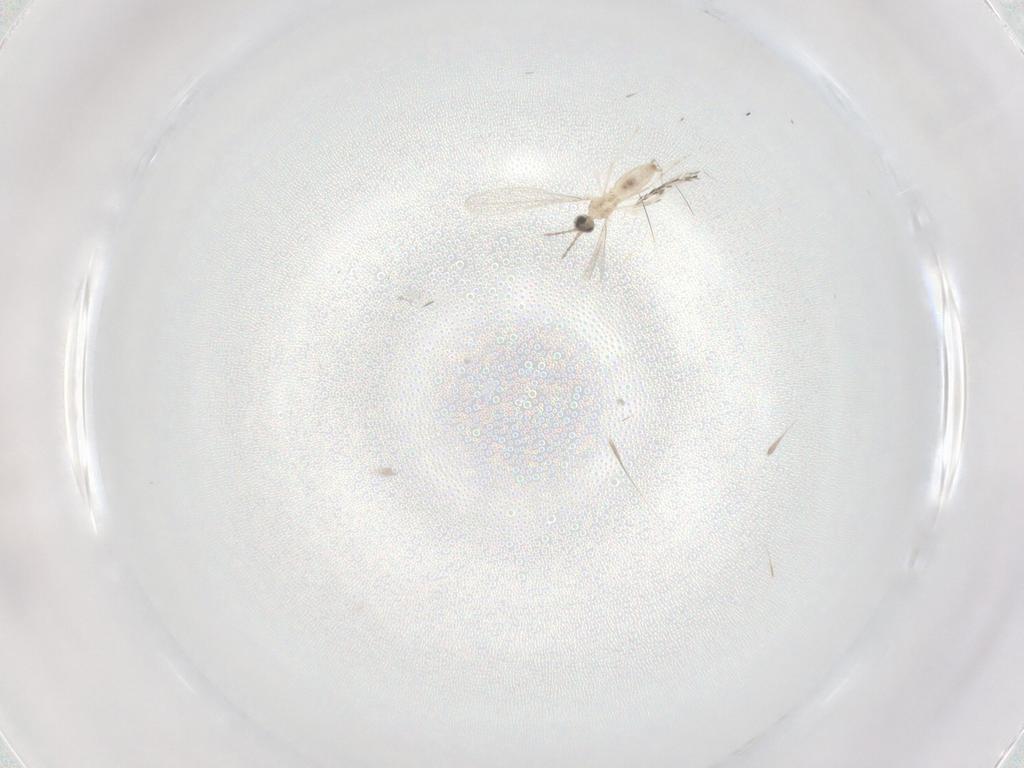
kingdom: Animalia
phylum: Arthropoda
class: Insecta
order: Diptera
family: Cecidomyiidae
